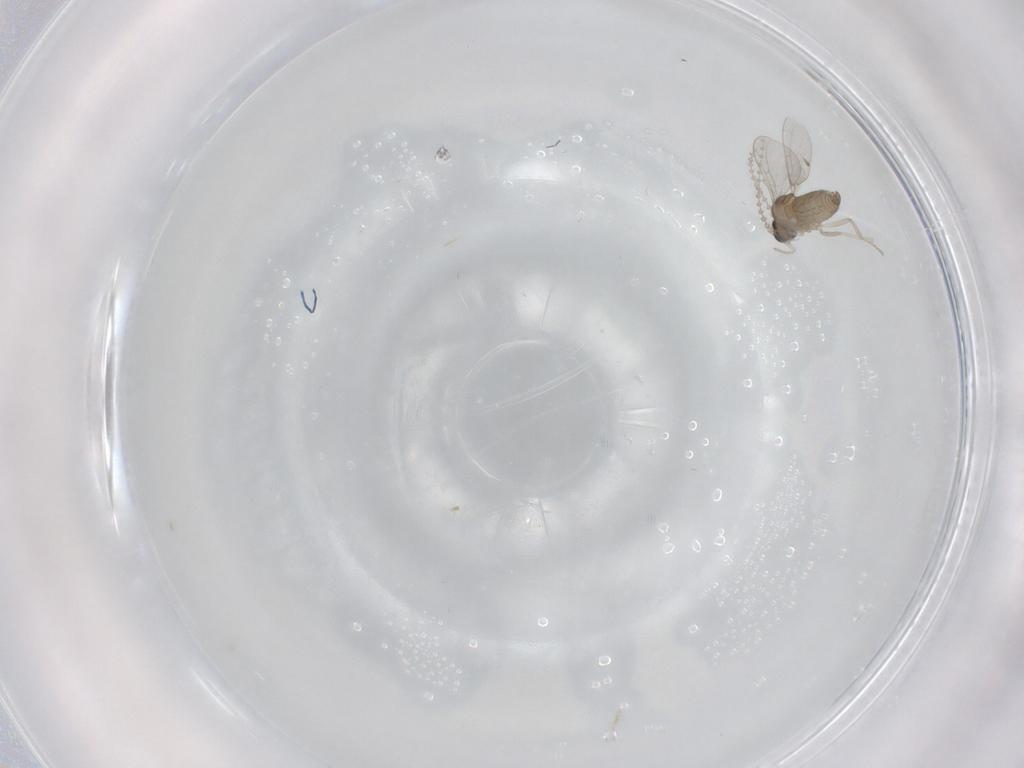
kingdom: Animalia
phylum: Arthropoda
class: Insecta
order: Diptera
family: Cecidomyiidae
